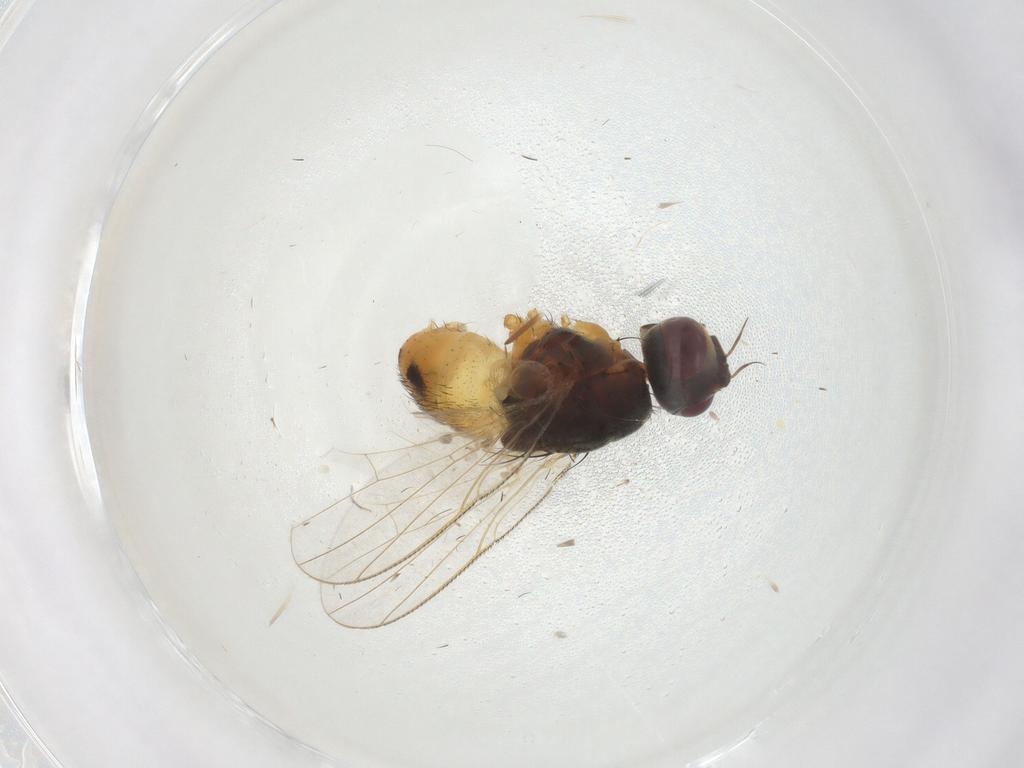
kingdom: Animalia
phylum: Arthropoda
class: Insecta
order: Diptera
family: Muscidae
